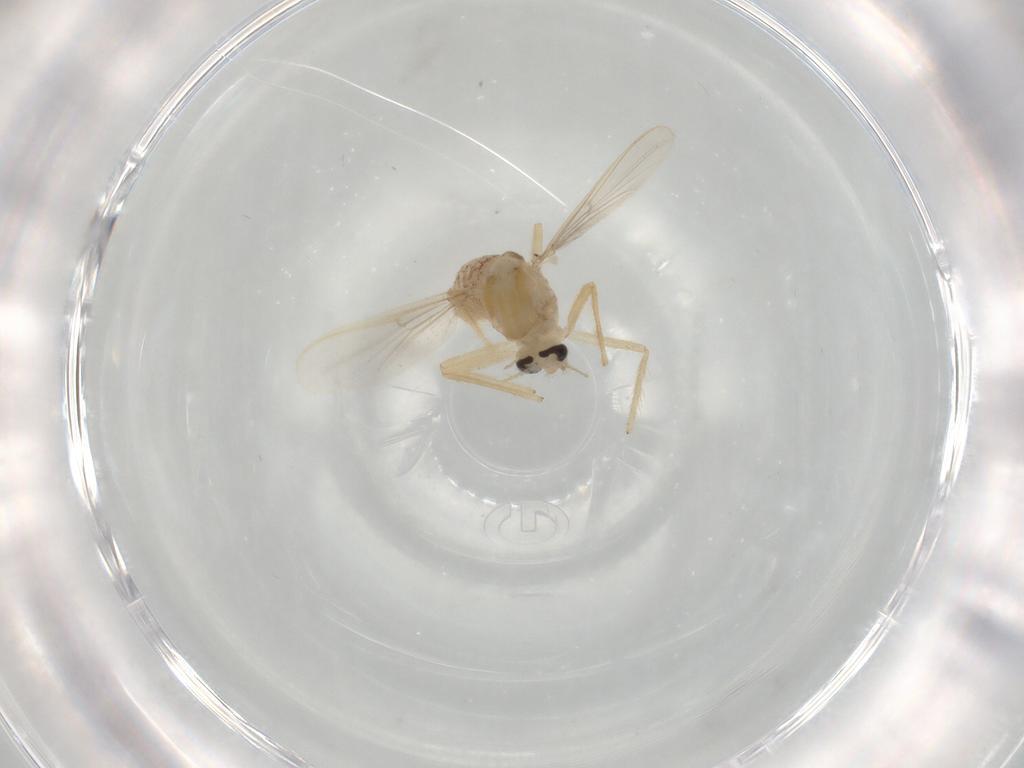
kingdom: Animalia
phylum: Arthropoda
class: Insecta
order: Diptera
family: Chironomidae
